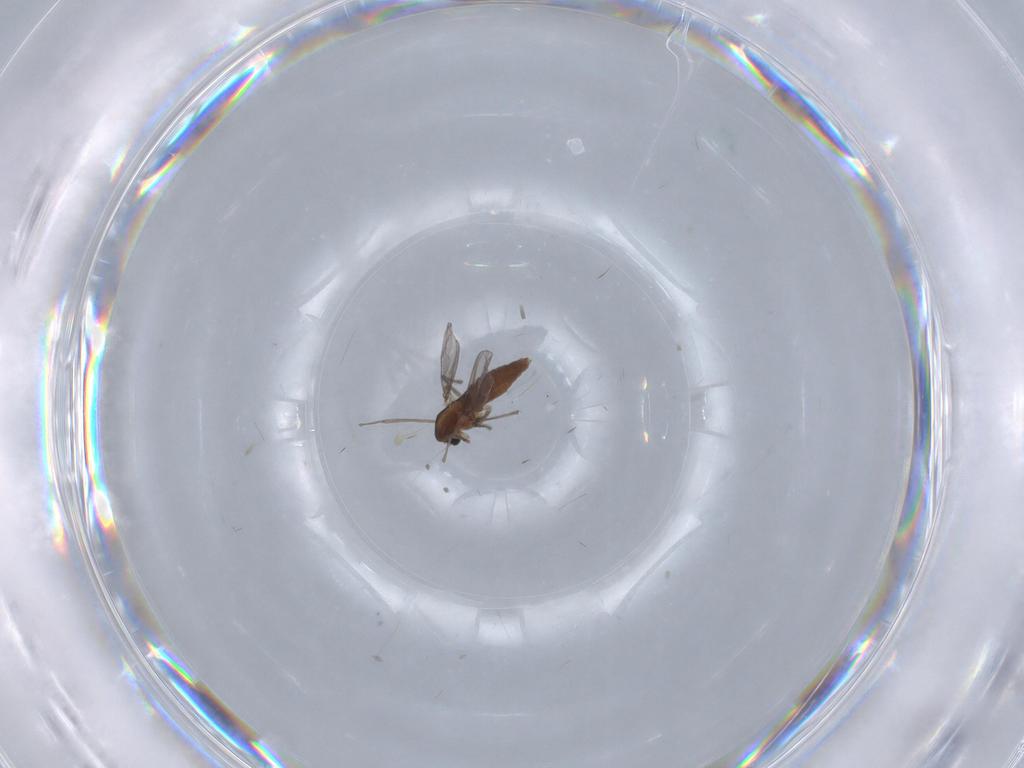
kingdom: Animalia
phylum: Arthropoda
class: Insecta
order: Diptera
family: Chironomidae
